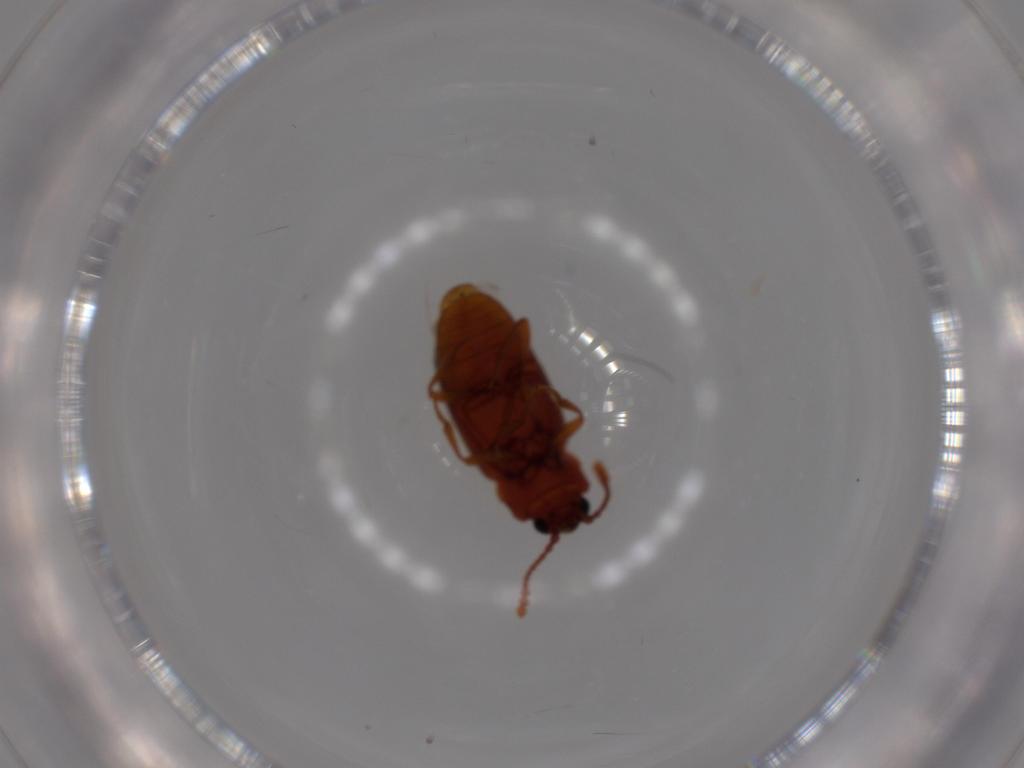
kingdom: Animalia
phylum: Arthropoda
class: Insecta
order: Coleoptera
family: Cryptophagidae
